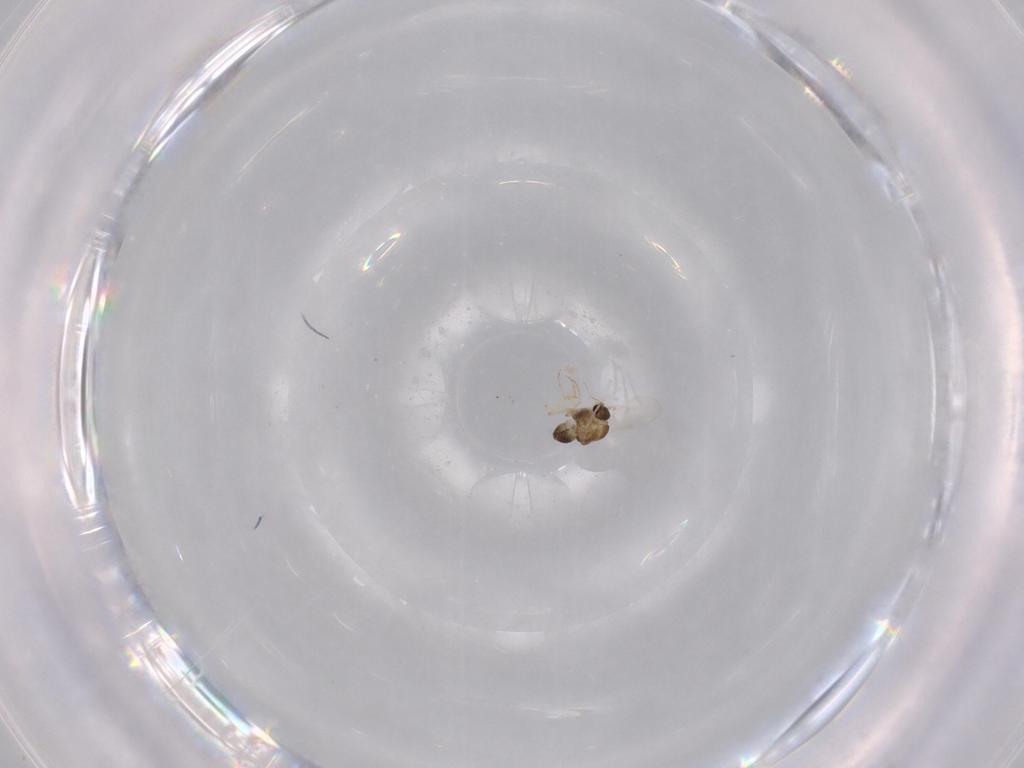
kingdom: Animalia
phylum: Arthropoda
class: Insecta
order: Diptera
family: Chironomidae
